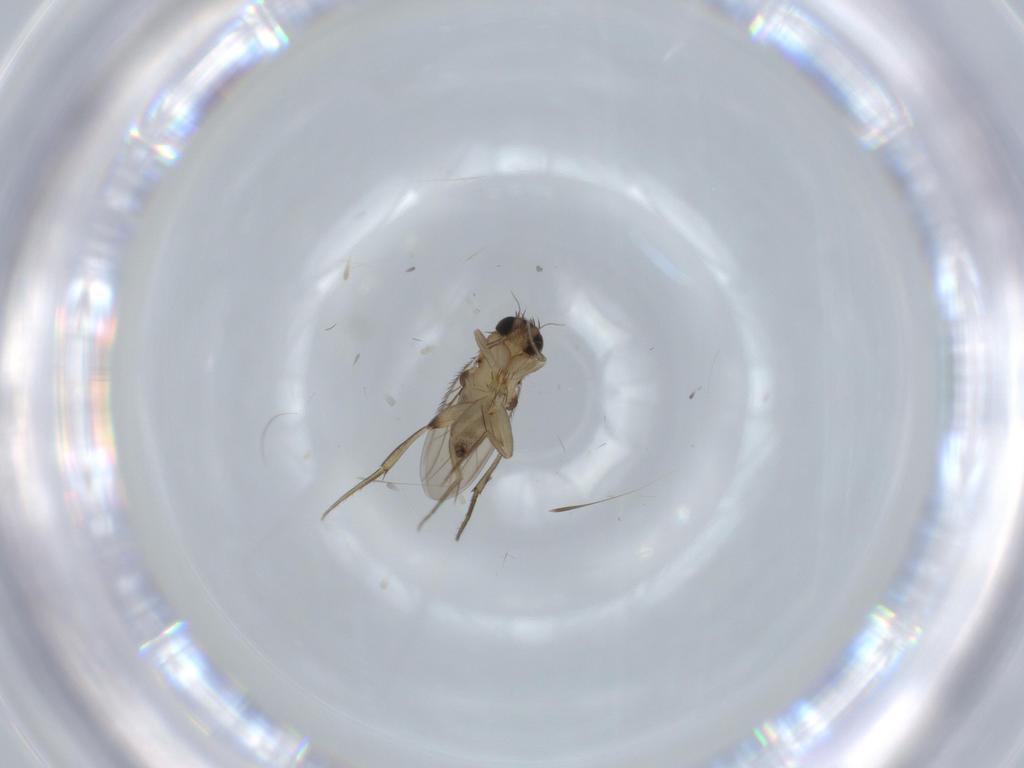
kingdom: Animalia
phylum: Arthropoda
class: Insecta
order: Diptera
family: Phoridae
